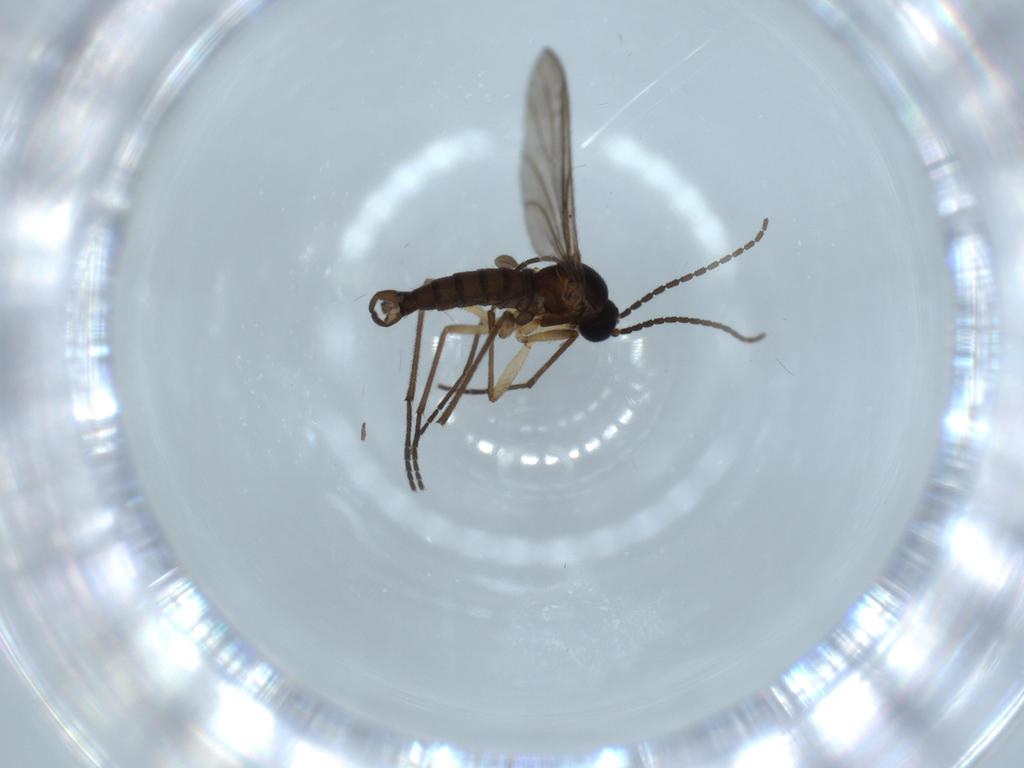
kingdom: Animalia
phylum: Arthropoda
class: Insecta
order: Diptera
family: Sciaridae
